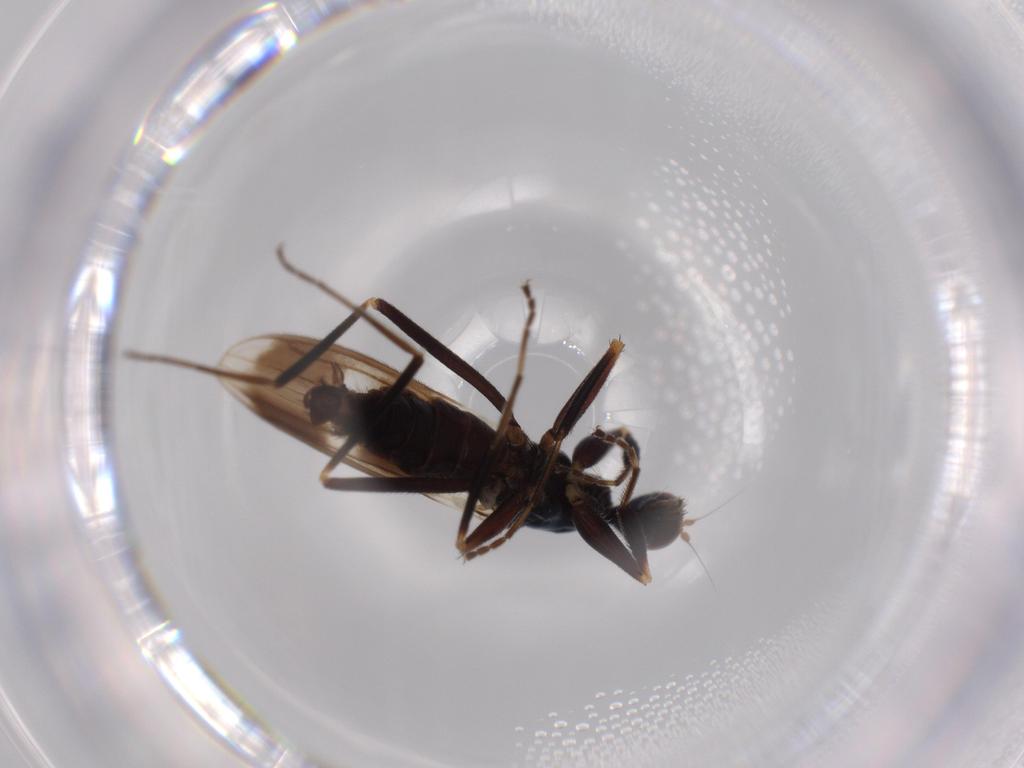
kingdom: Animalia
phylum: Arthropoda
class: Insecta
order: Diptera
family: Hybotidae
